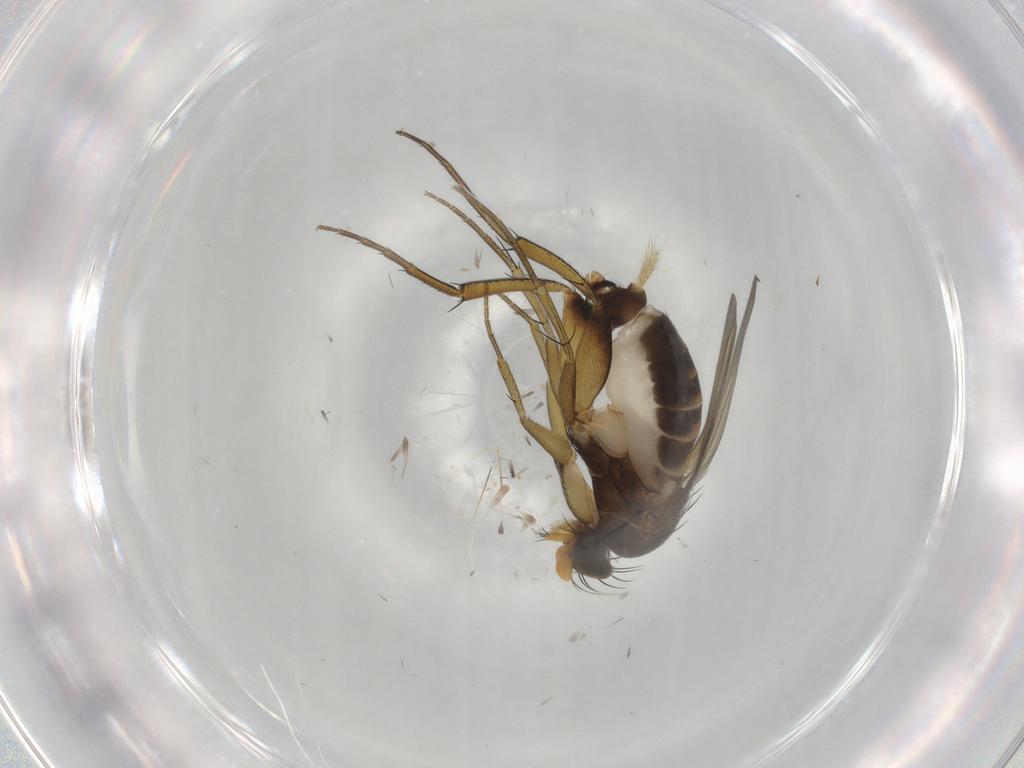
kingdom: Animalia
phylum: Arthropoda
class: Insecta
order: Diptera
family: Phoridae
